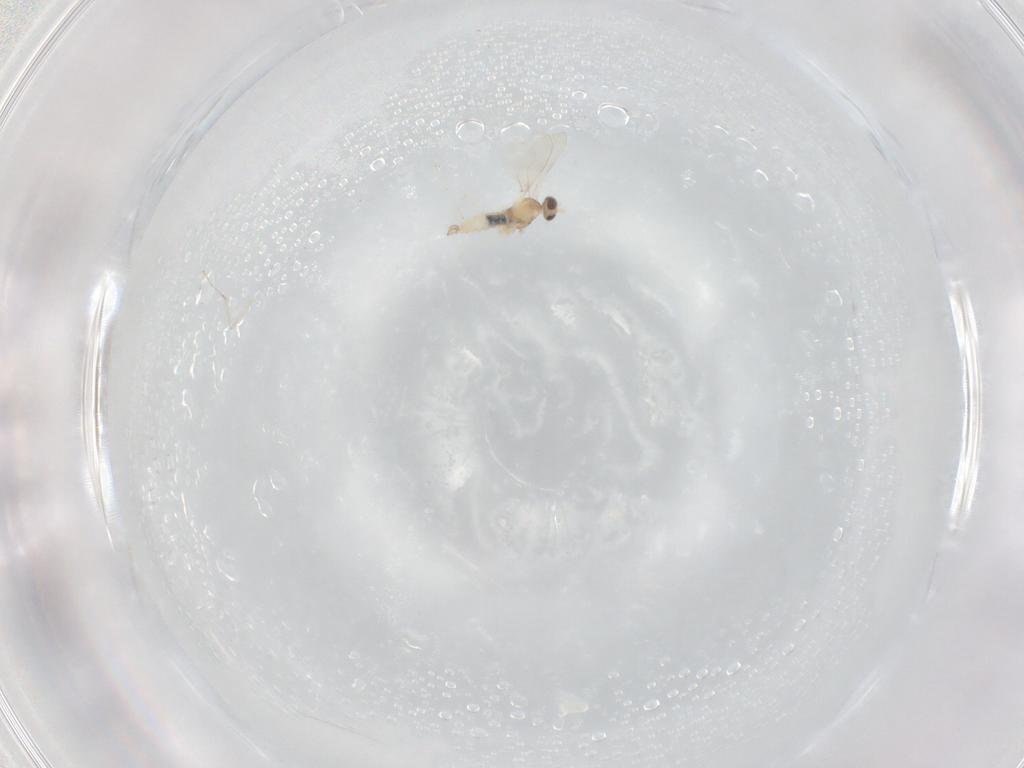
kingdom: Animalia
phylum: Arthropoda
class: Insecta
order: Diptera
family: Cecidomyiidae
